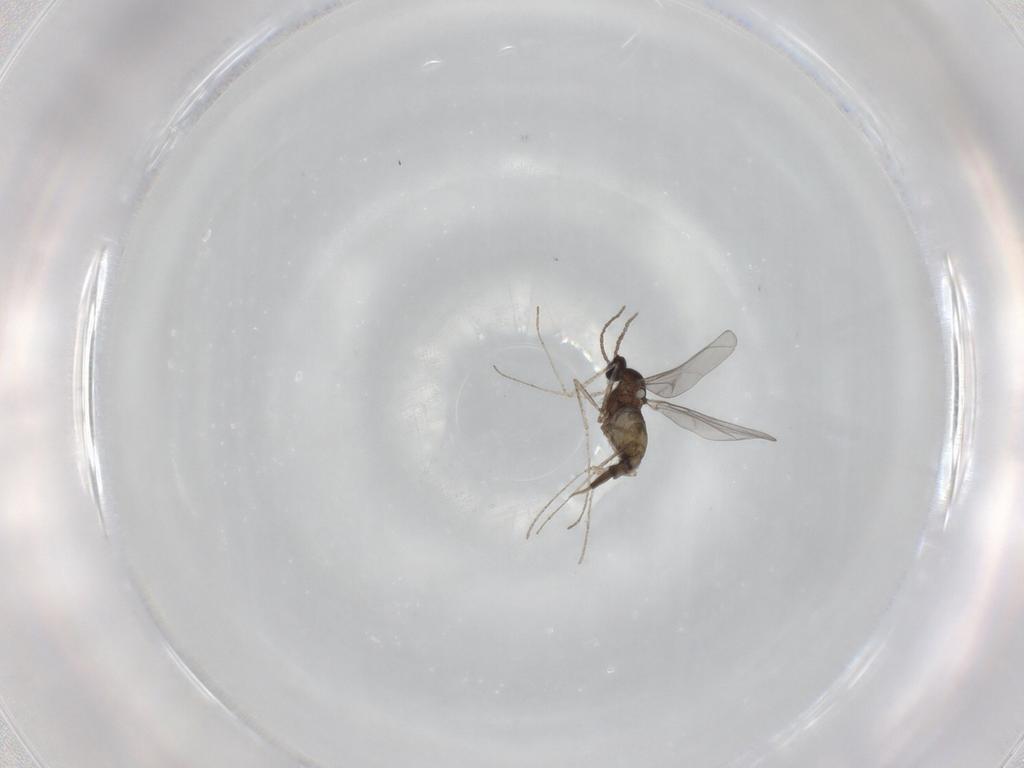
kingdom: Animalia
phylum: Arthropoda
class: Insecta
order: Diptera
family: Cecidomyiidae
